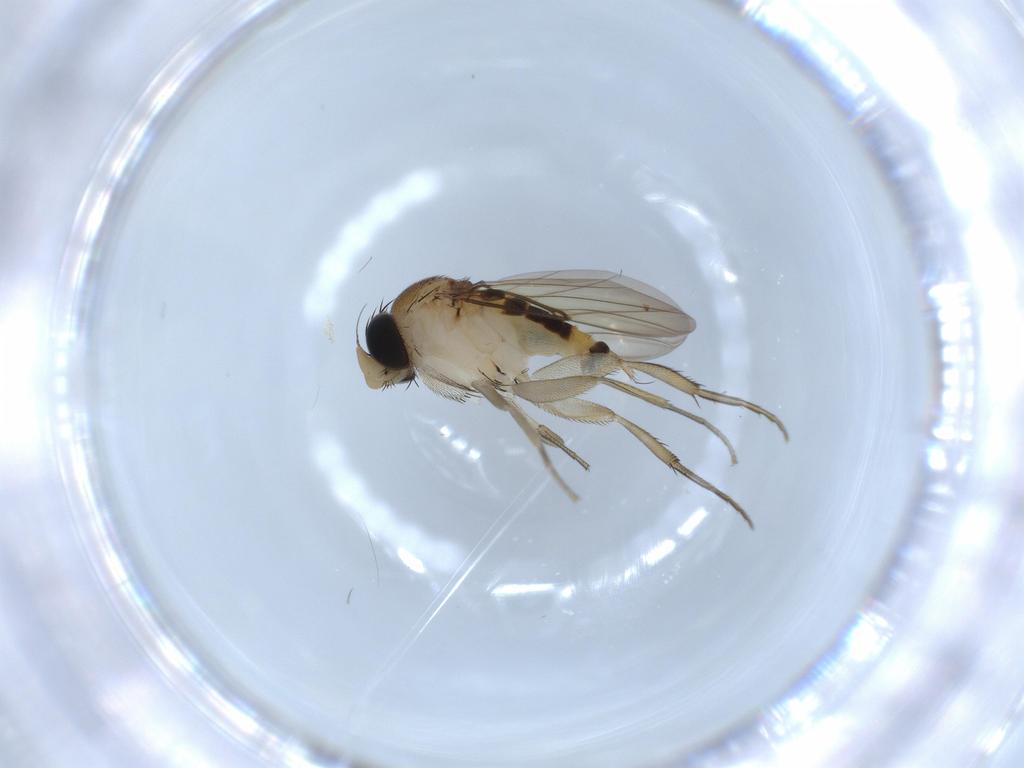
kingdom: Animalia
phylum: Arthropoda
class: Insecta
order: Diptera
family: Phoridae
